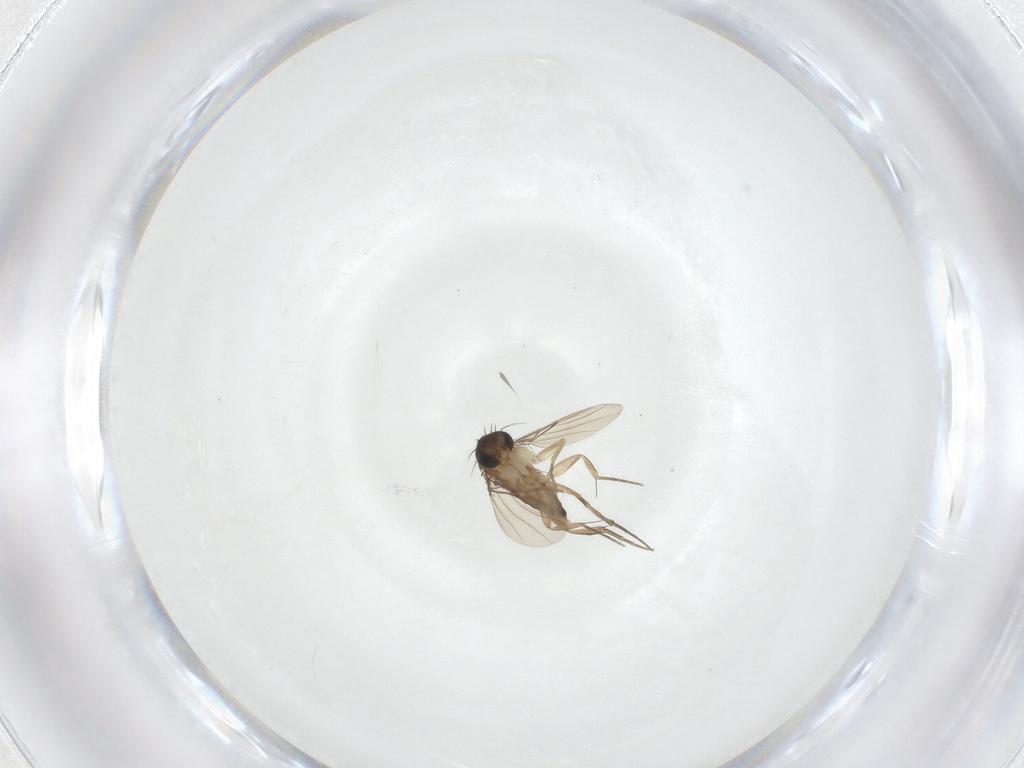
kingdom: Animalia
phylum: Arthropoda
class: Insecta
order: Diptera
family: Phoridae
